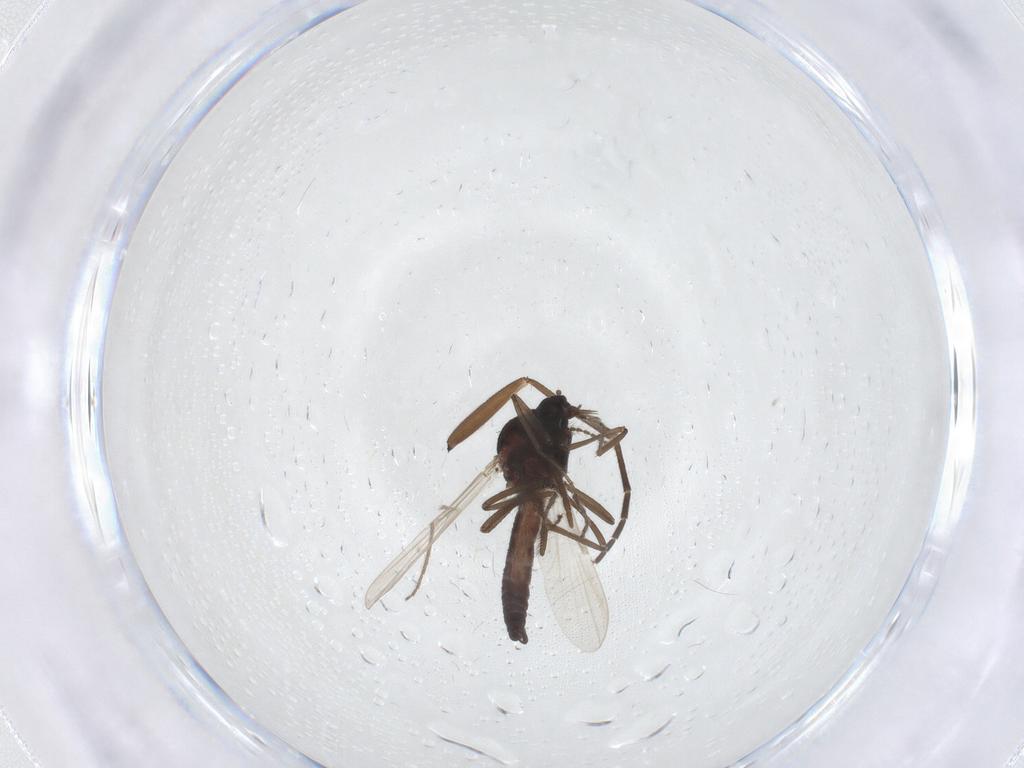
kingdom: Animalia
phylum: Arthropoda
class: Insecta
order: Diptera
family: Ceratopogonidae
